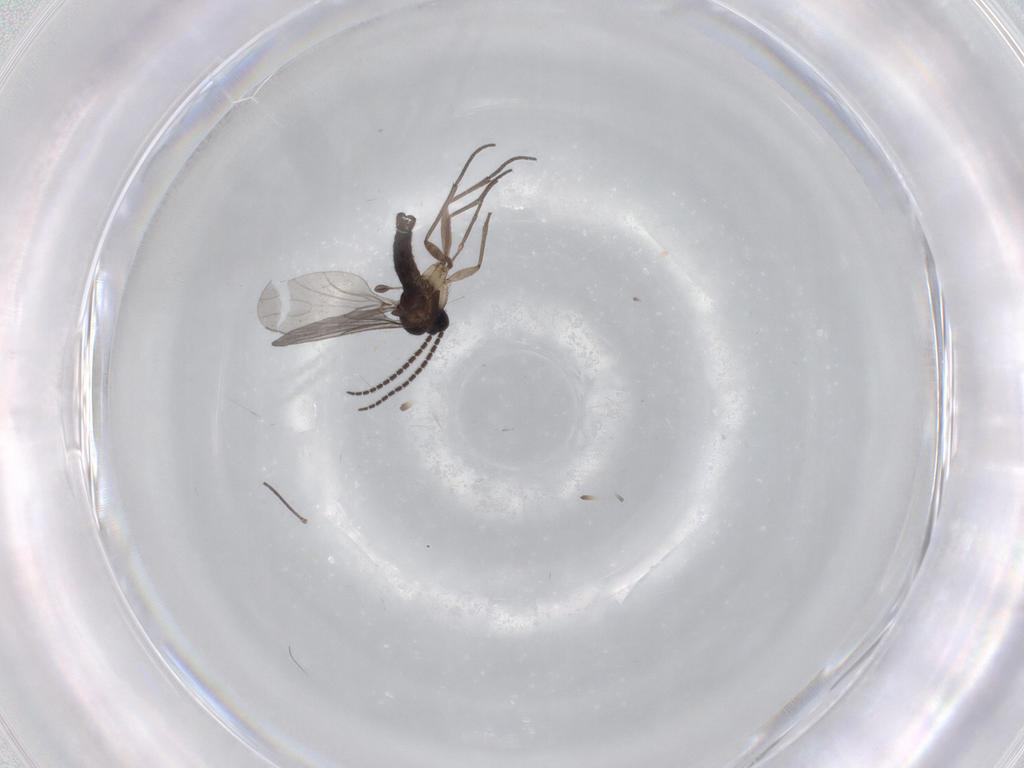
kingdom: Animalia
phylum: Arthropoda
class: Insecta
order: Diptera
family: Sciaridae
